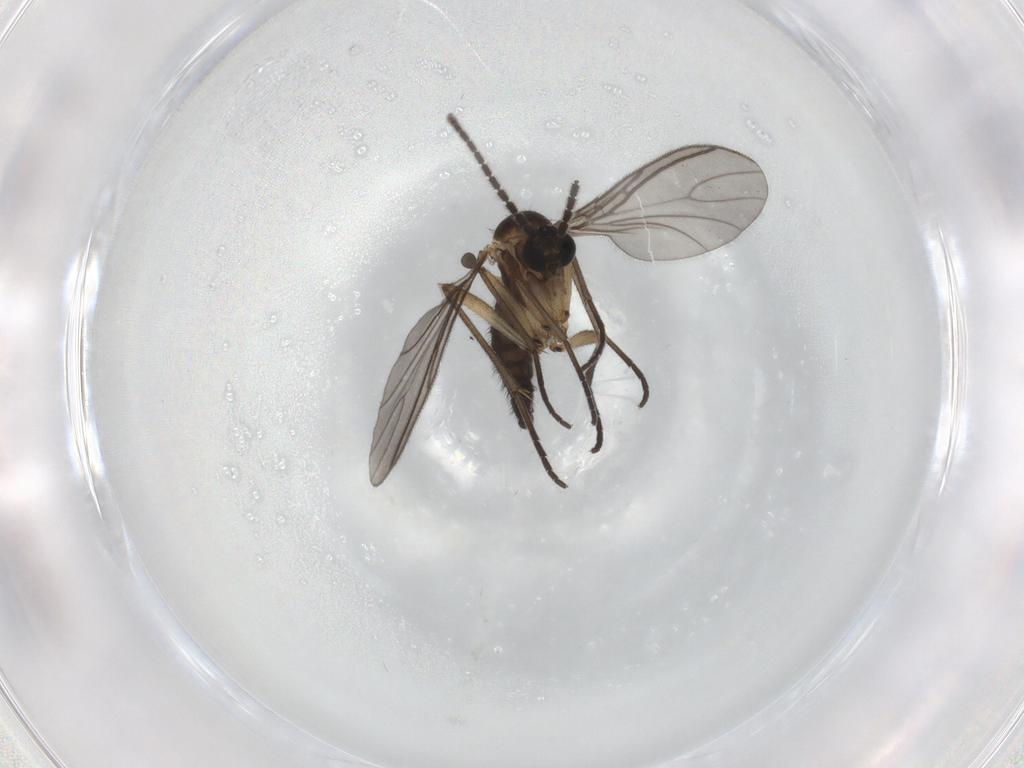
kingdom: Animalia
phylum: Arthropoda
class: Insecta
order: Diptera
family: Sciaridae
